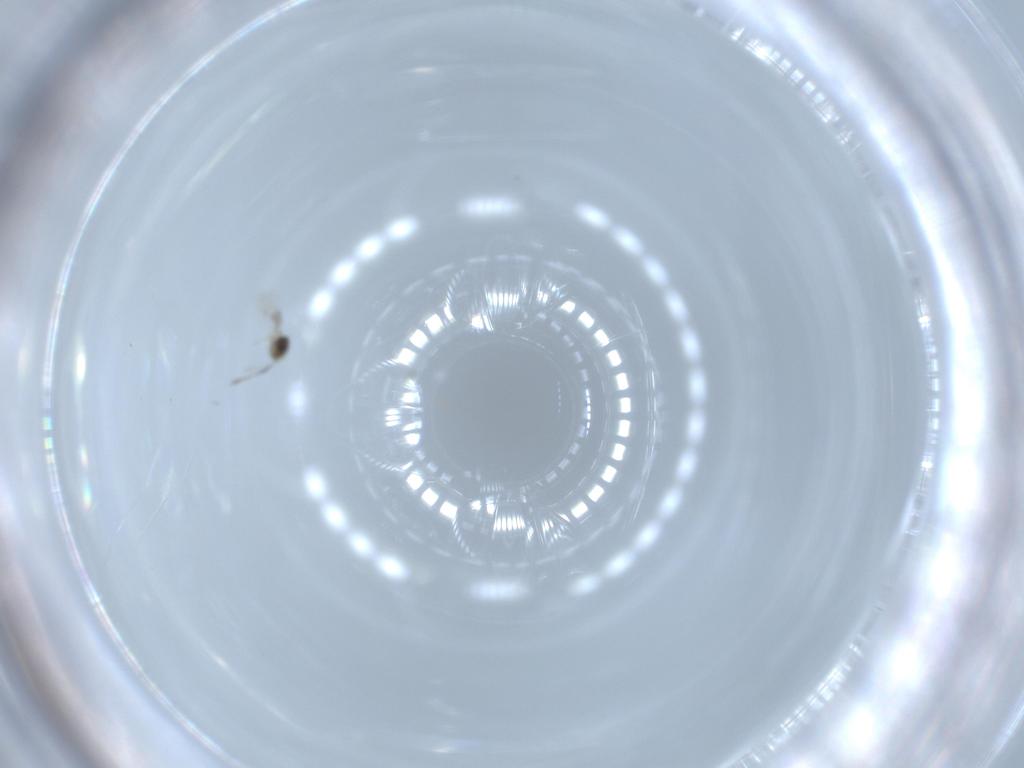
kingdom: Animalia
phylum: Arthropoda
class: Insecta
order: Hymenoptera
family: Aphelinidae
